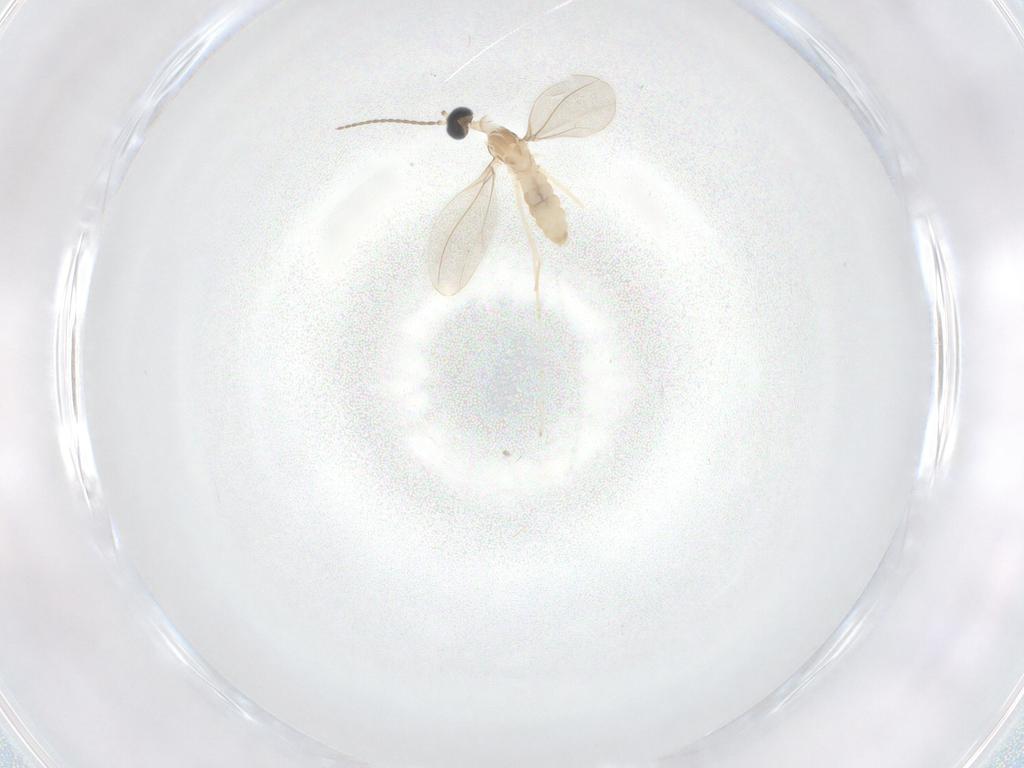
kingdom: Animalia
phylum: Arthropoda
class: Insecta
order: Diptera
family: Cecidomyiidae
